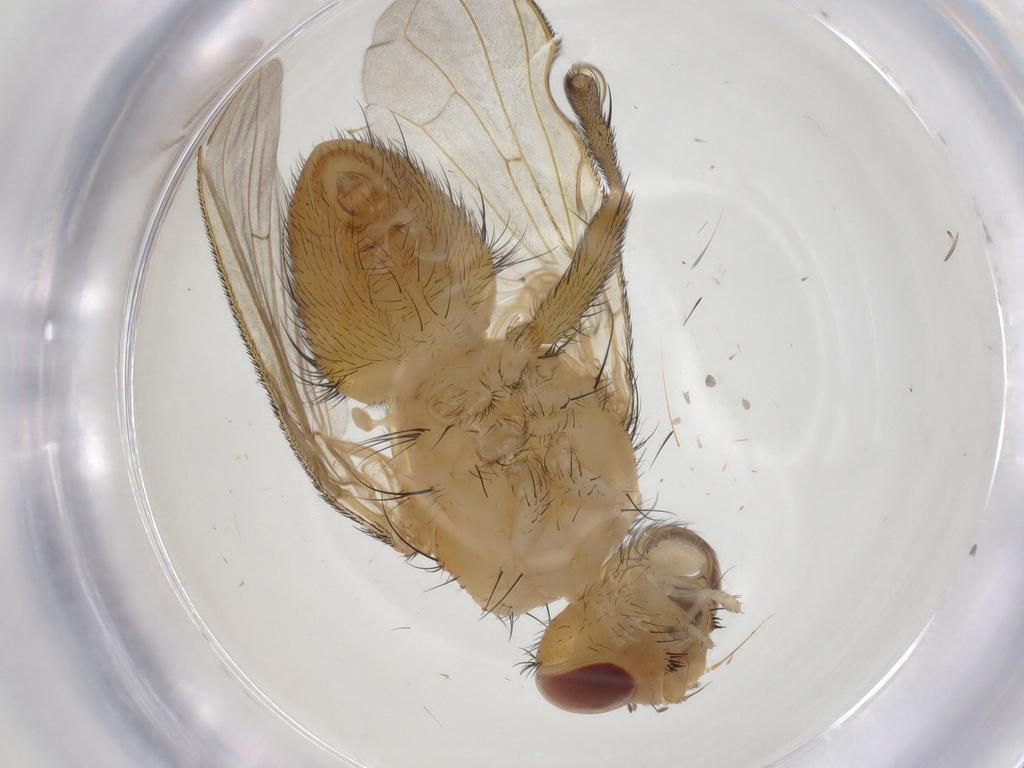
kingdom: Animalia
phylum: Arthropoda
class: Insecta
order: Diptera
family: Tachinidae
